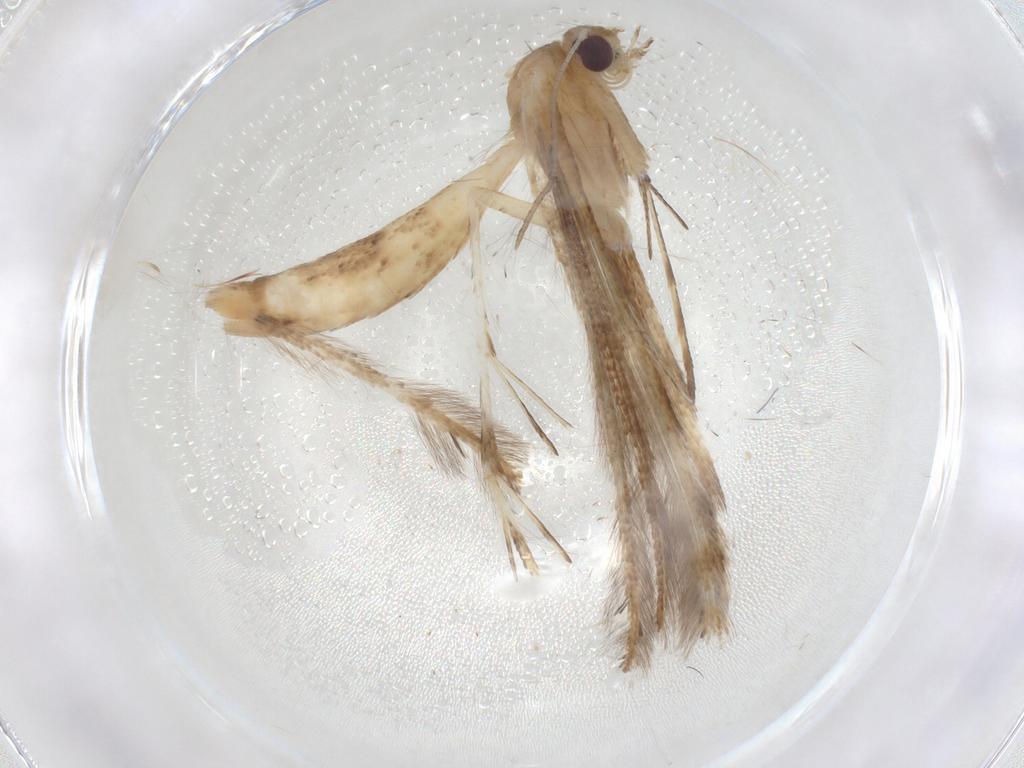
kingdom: Animalia
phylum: Arthropoda
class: Insecta
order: Lepidoptera
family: Pterophoridae
